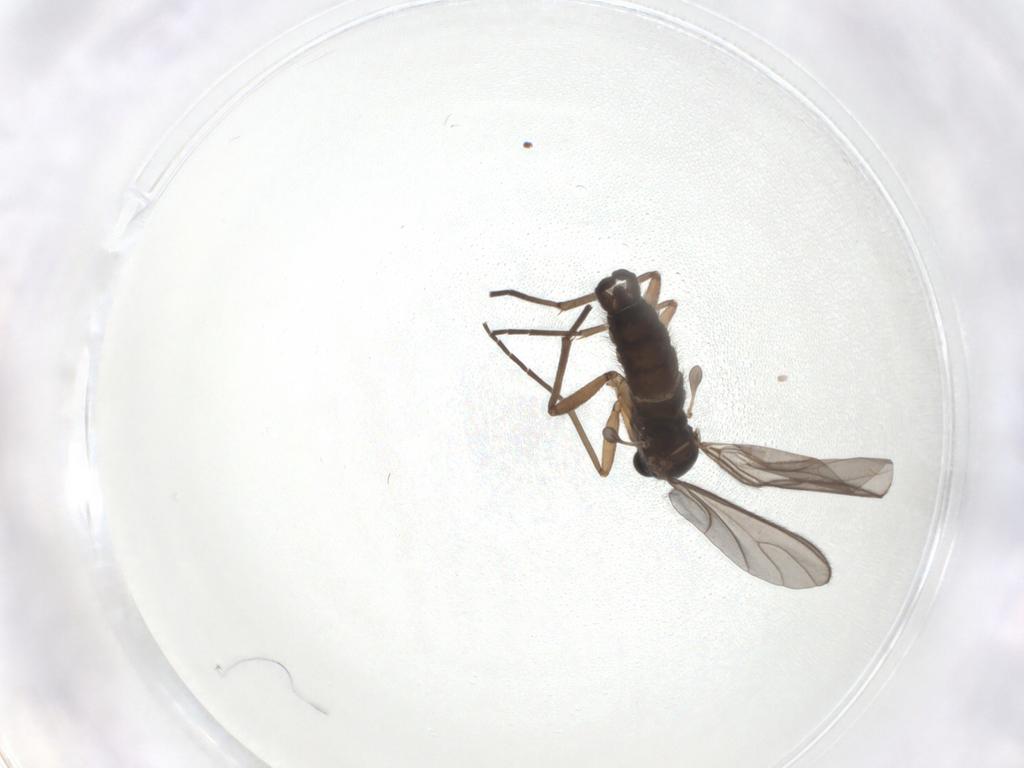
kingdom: Animalia
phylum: Arthropoda
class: Insecta
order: Diptera
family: Sciaridae
